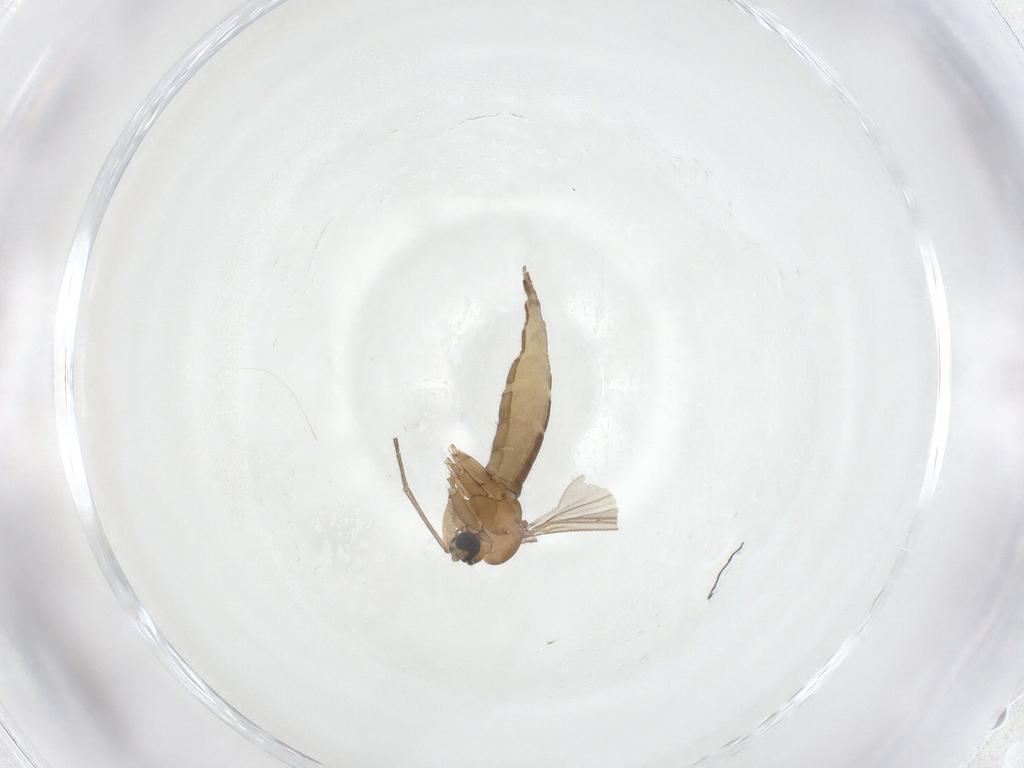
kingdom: Animalia
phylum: Arthropoda
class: Insecta
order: Diptera
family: Sciaridae
